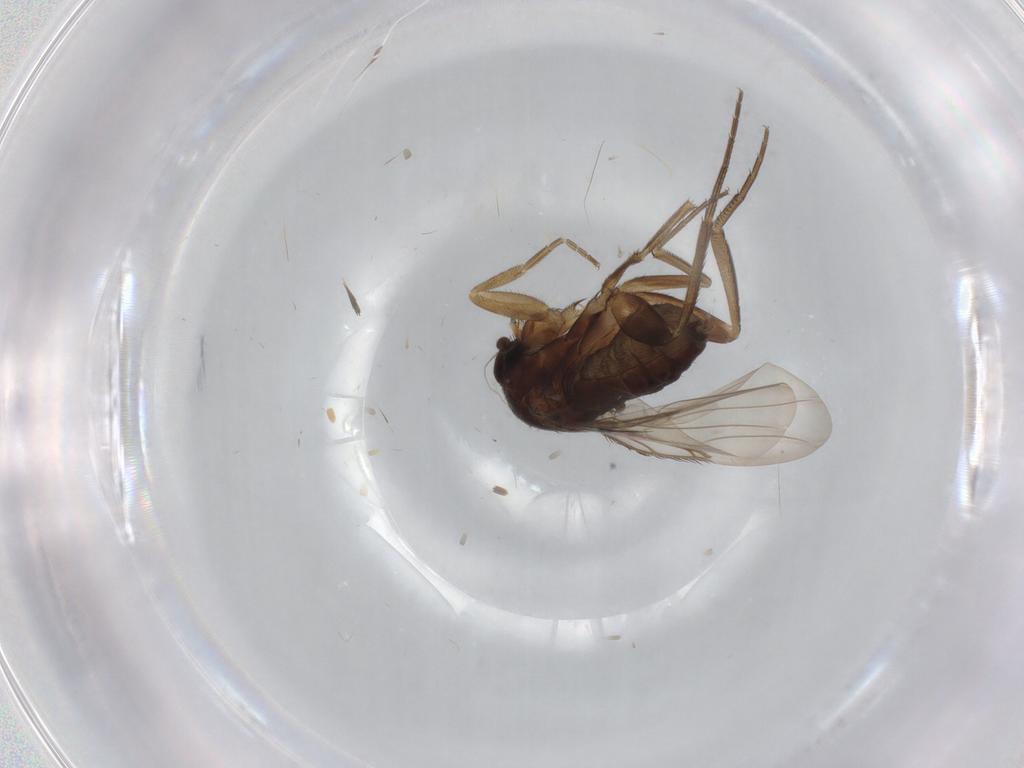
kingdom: Animalia
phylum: Arthropoda
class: Insecta
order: Diptera
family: Phoridae
